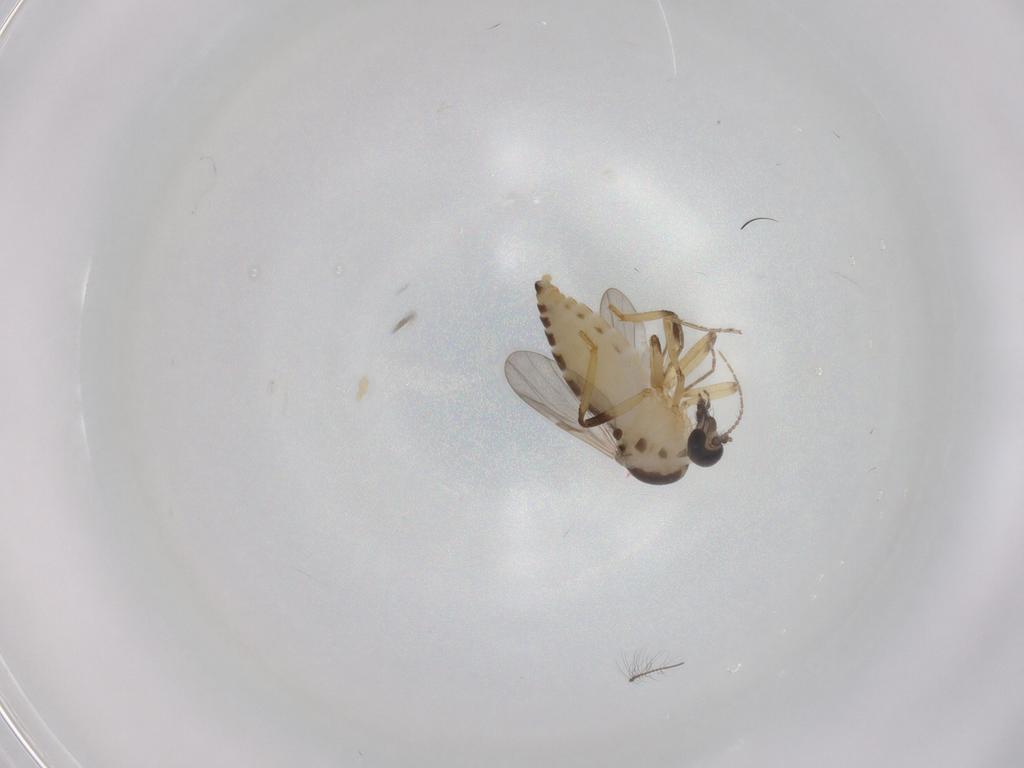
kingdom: Animalia
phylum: Arthropoda
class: Insecta
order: Diptera
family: Ceratopogonidae
